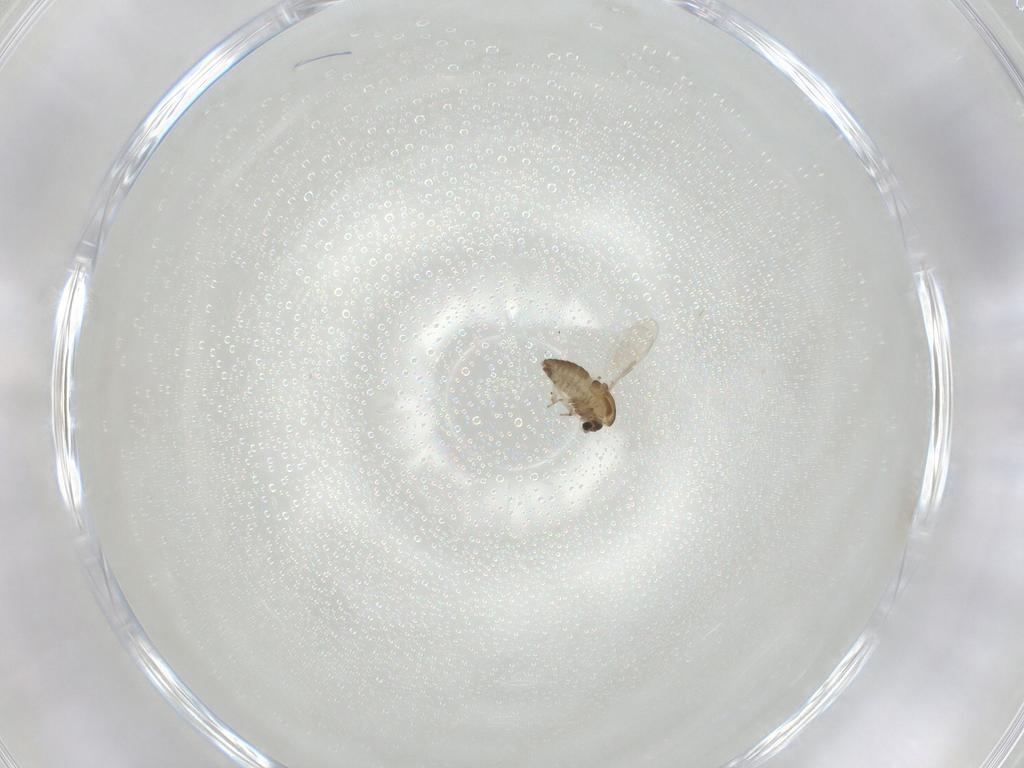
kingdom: Animalia
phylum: Arthropoda
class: Insecta
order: Diptera
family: Chironomidae
